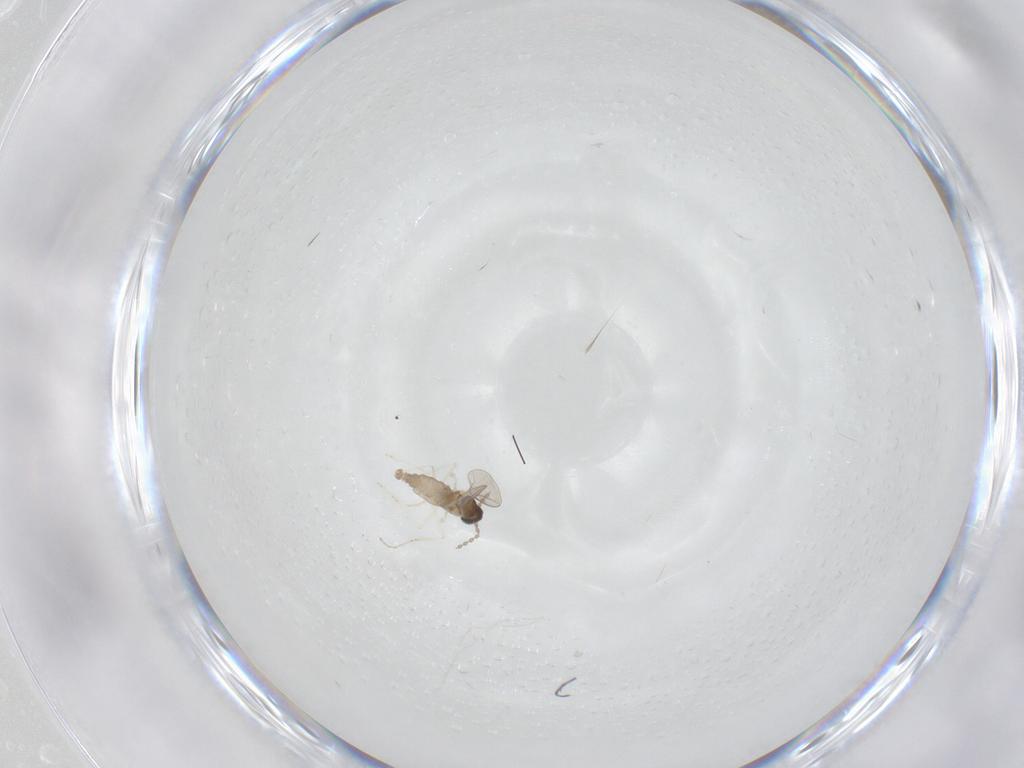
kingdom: Animalia
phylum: Arthropoda
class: Insecta
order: Diptera
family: Cecidomyiidae
